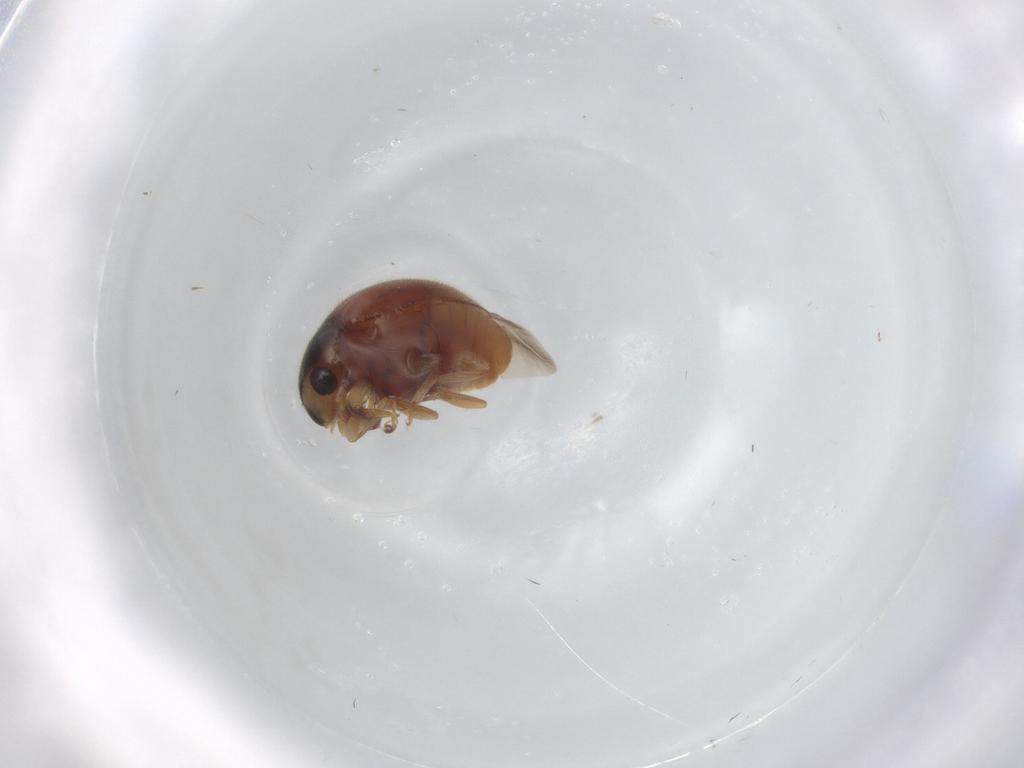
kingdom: Animalia
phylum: Arthropoda
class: Insecta
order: Coleoptera
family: Coccinellidae
